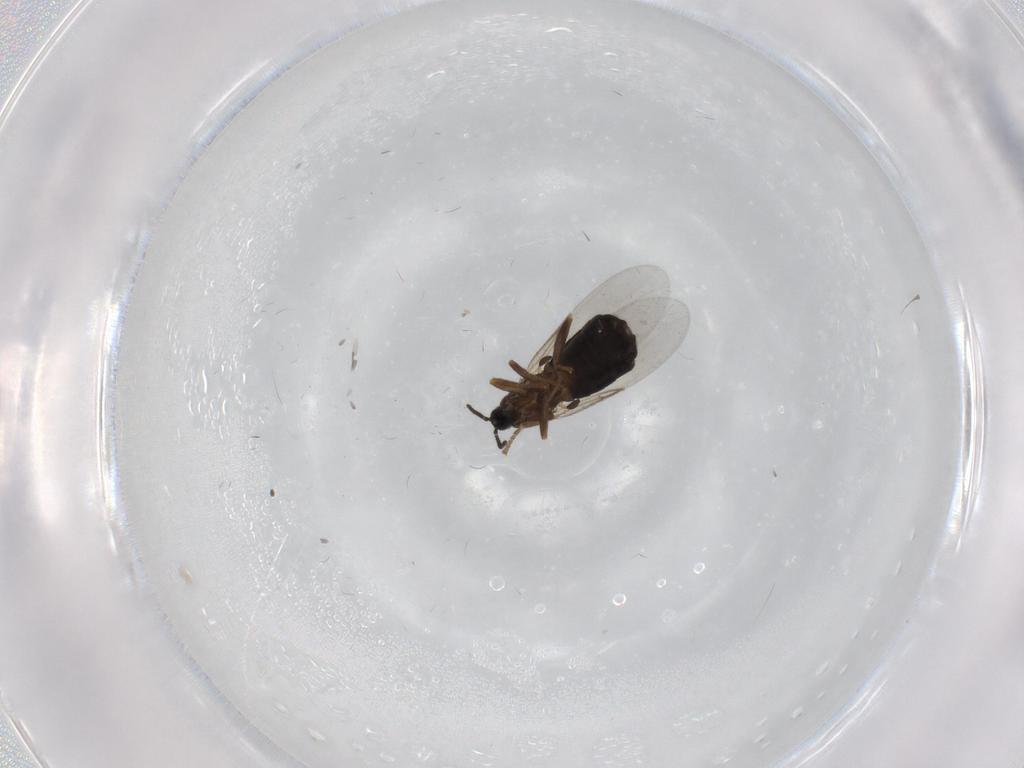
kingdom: Animalia
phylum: Arthropoda
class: Insecta
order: Diptera
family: Scatopsidae
